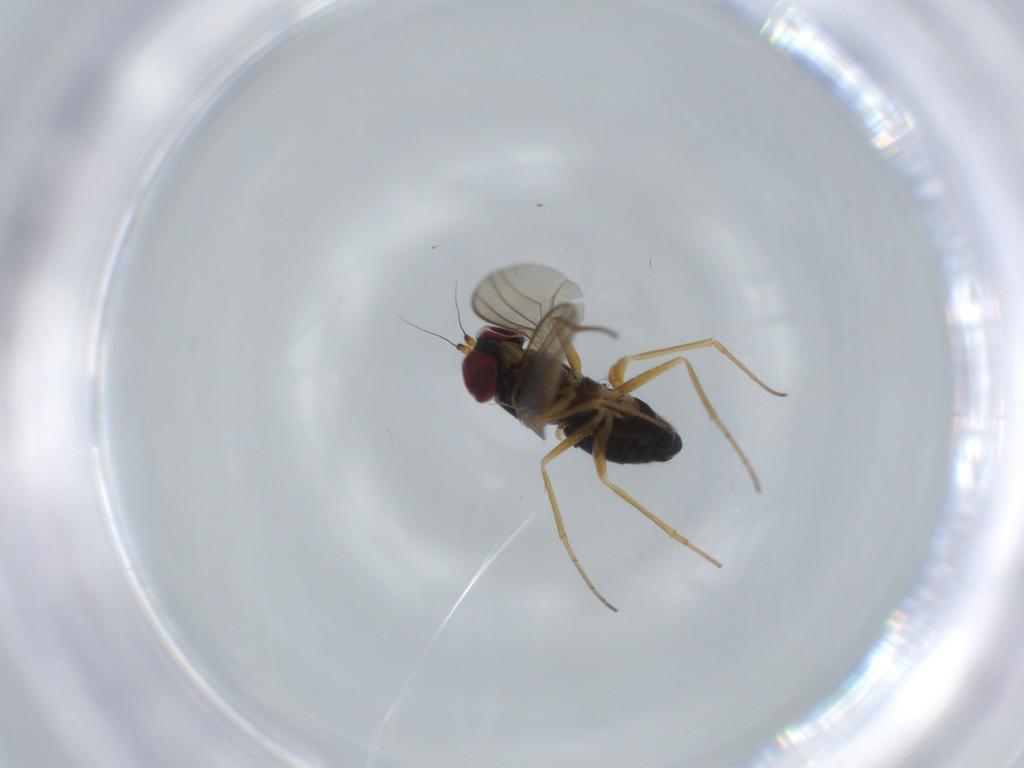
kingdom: Animalia
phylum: Arthropoda
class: Insecta
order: Diptera
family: Dolichopodidae
